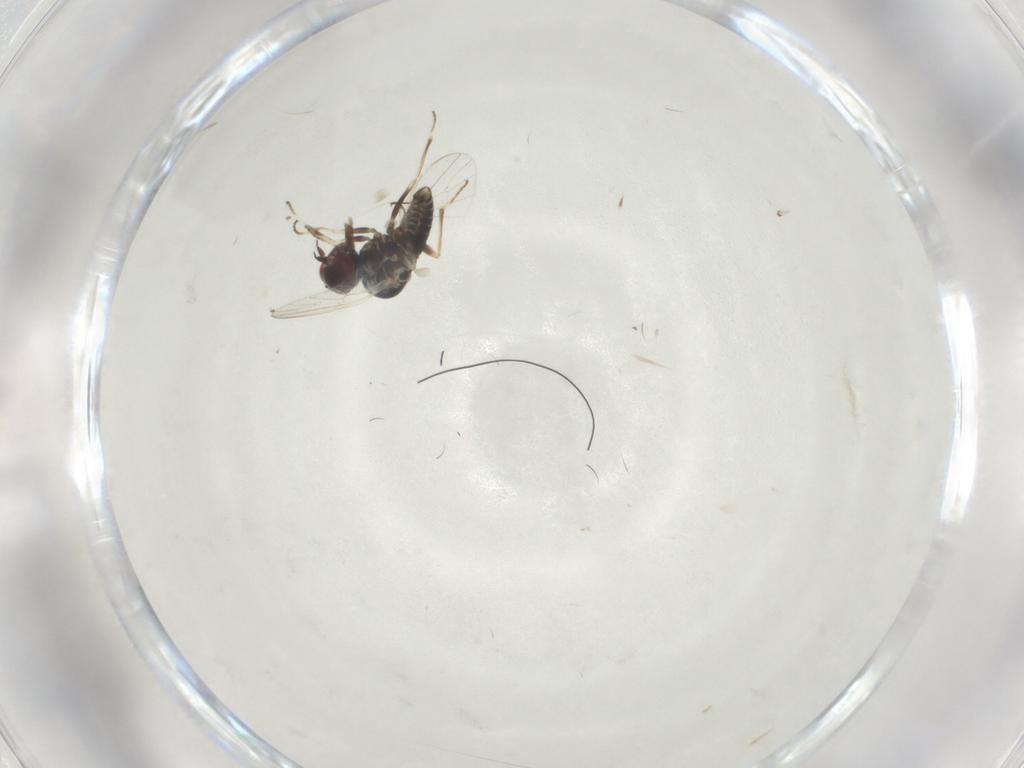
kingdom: Animalia
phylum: Arthropoda
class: Insecta
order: Diptera
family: Bombyliidae
